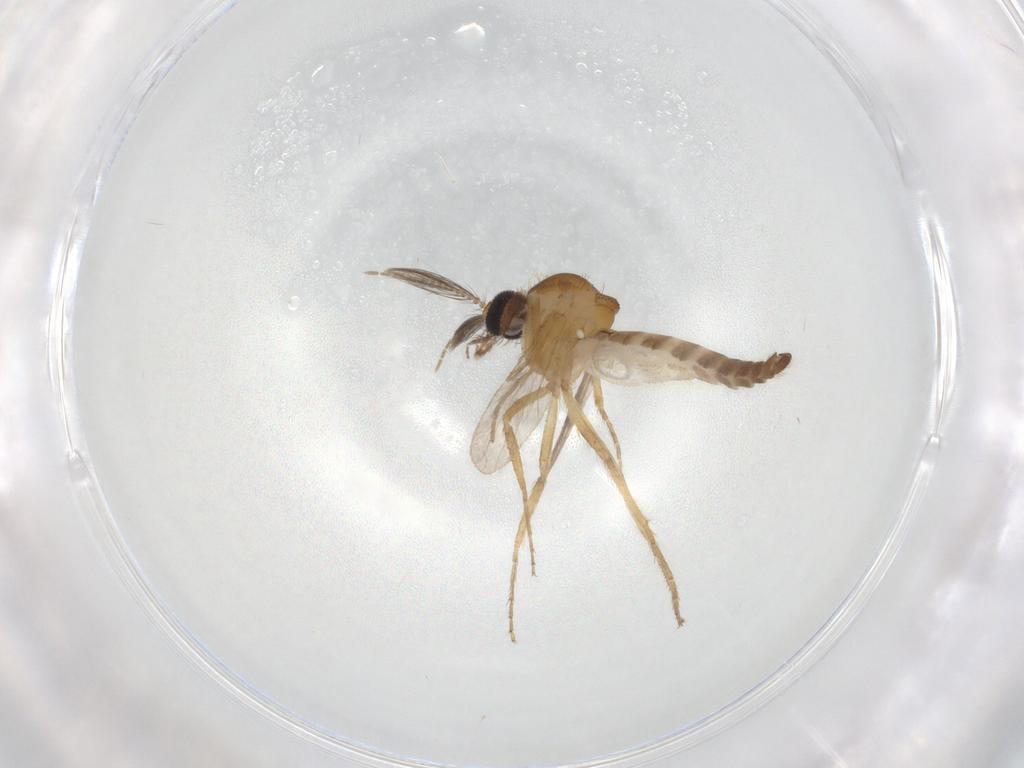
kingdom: Animalia
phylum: Arthropoda
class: Insecta
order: Diptera
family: Ceratopogonidae
